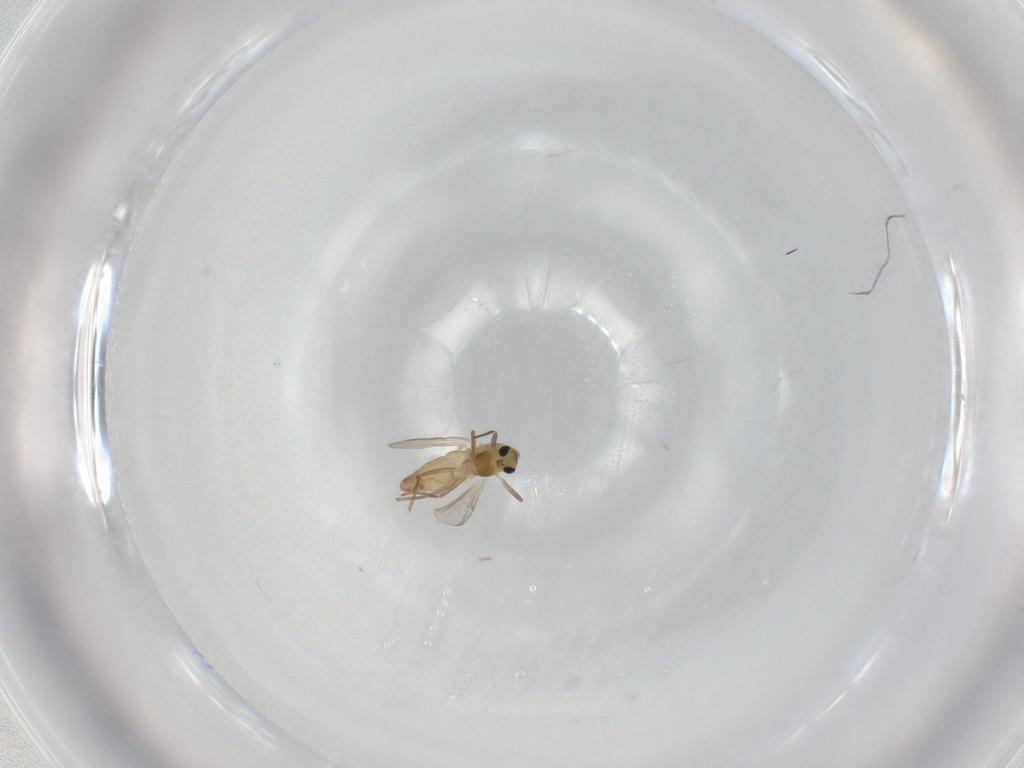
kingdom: Animalia
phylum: Arthropoda
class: Insecta
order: Diptera
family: Chironomidae
